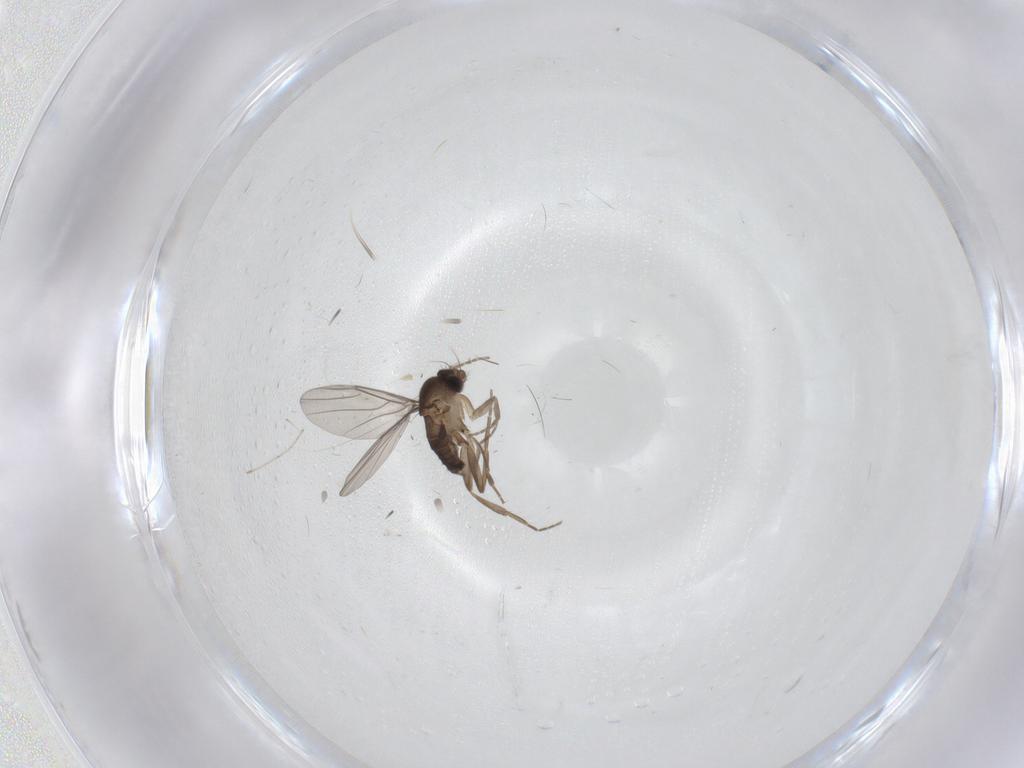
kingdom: Animalia
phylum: Arthropoda
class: Insecta
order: Diptera
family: Cecidomyiidae
